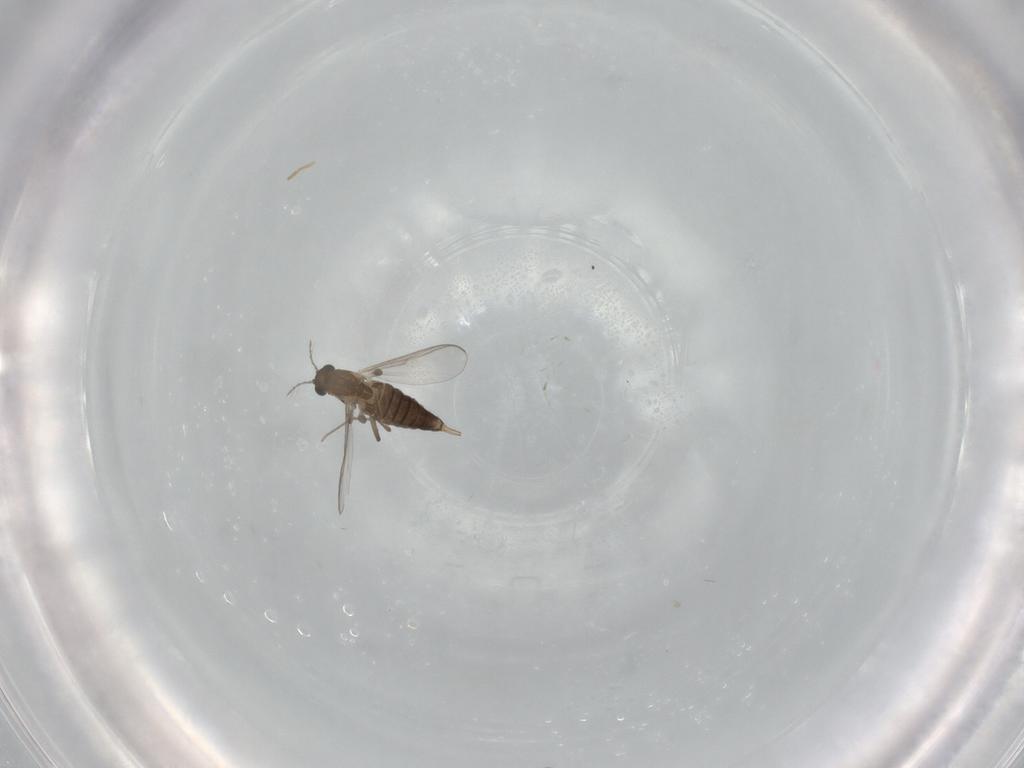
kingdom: Animalia
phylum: Arthropoda
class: Insecta
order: Diptera
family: Chironomidae
